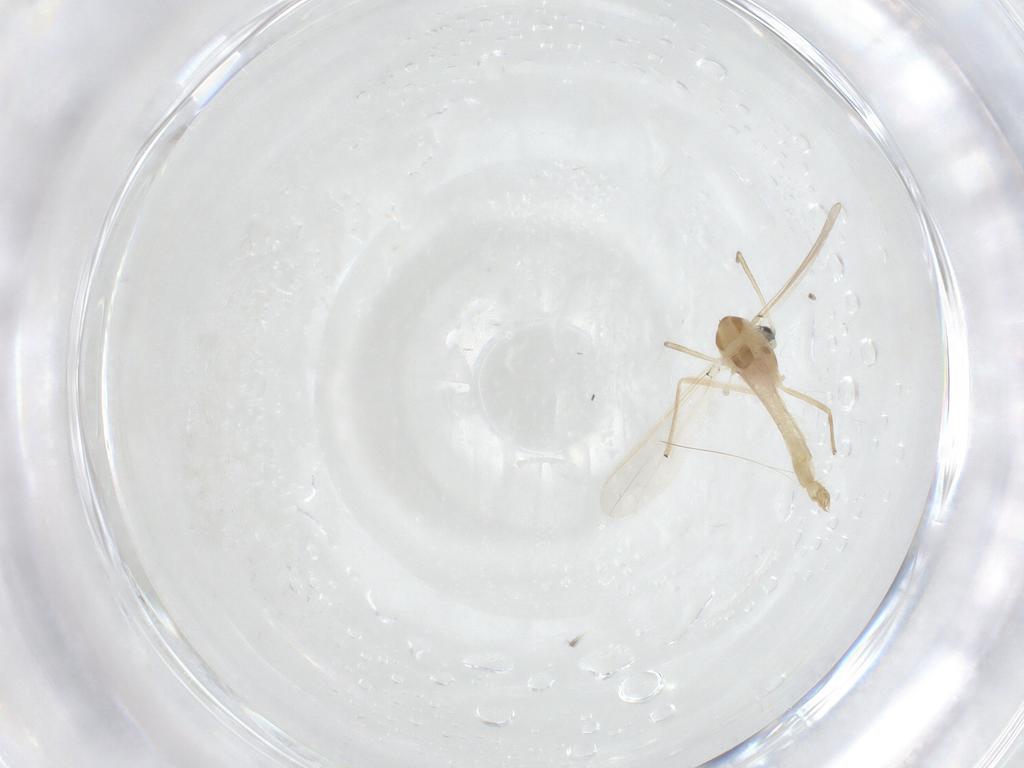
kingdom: Animalia
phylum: Arthropoda
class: Insecta
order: Diptera
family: Chironomidae
